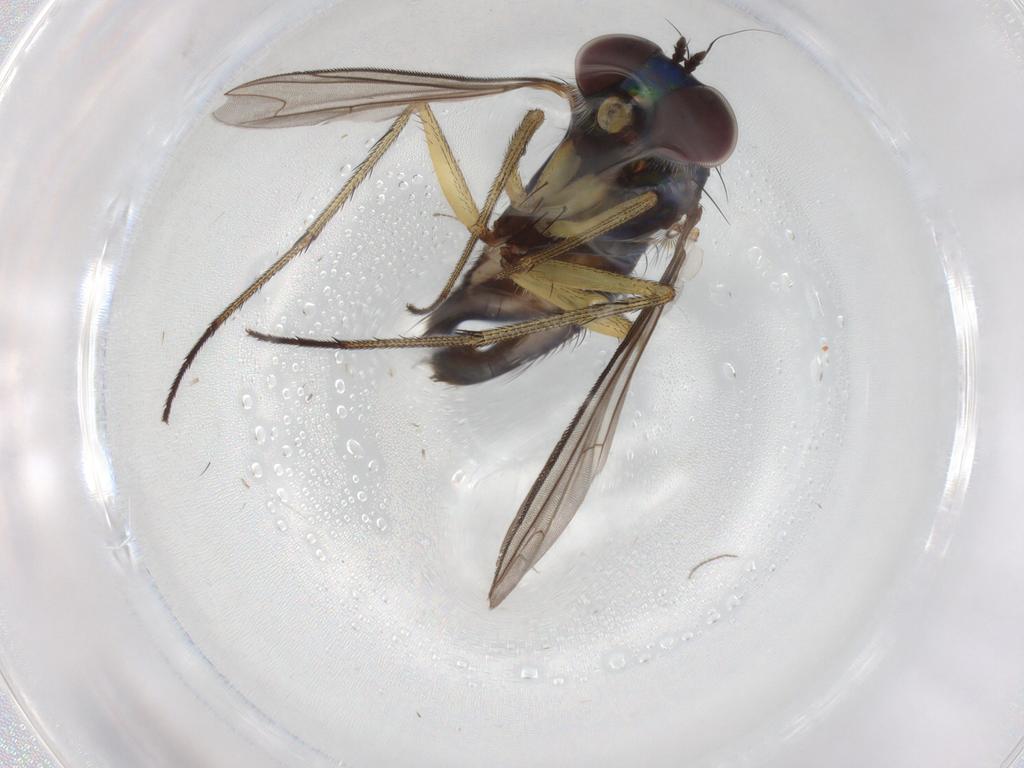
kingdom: Animalia
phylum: Arthropoda
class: Insecta
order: Diptera
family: Dolichopodidae
